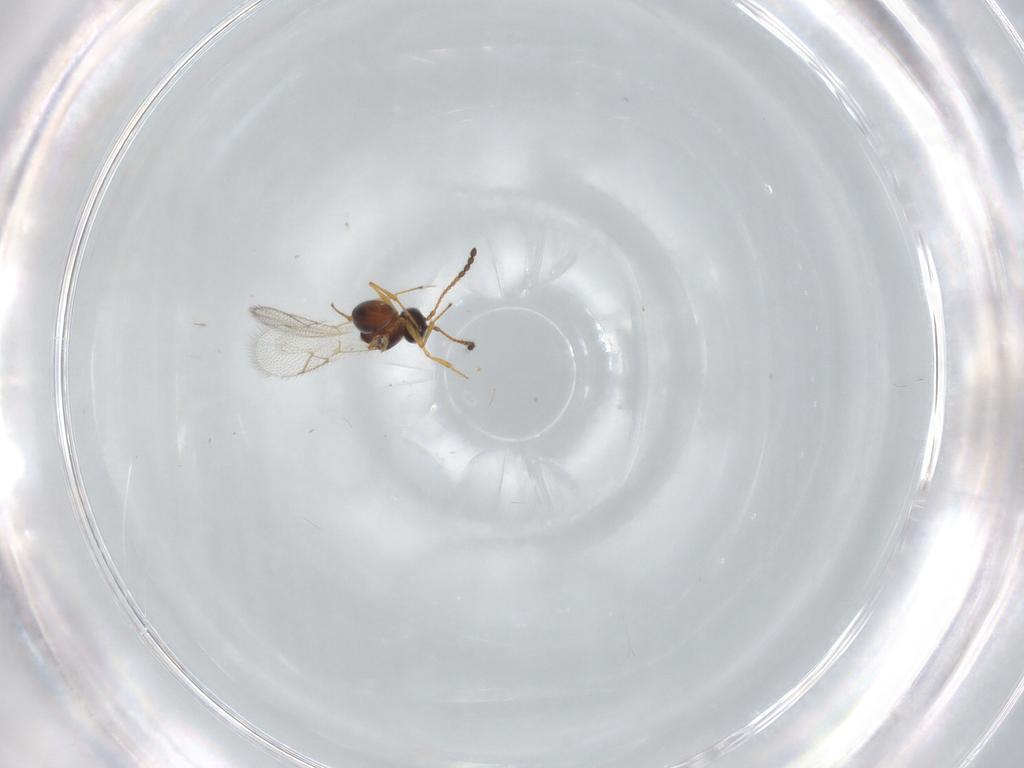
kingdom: Animalia
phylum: Arthropoda
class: Insecta
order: Hymenoptera
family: Figitidae
